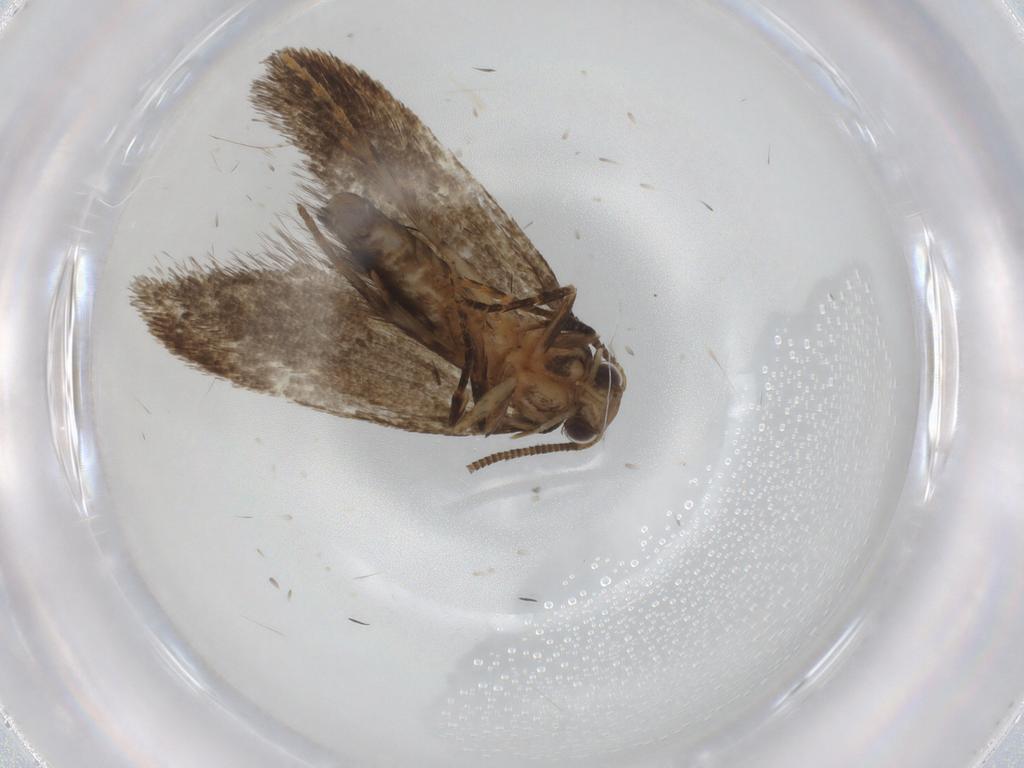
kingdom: Animalia
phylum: Arthropoda
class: Insecta
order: Lepidoptera
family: Crambidae
